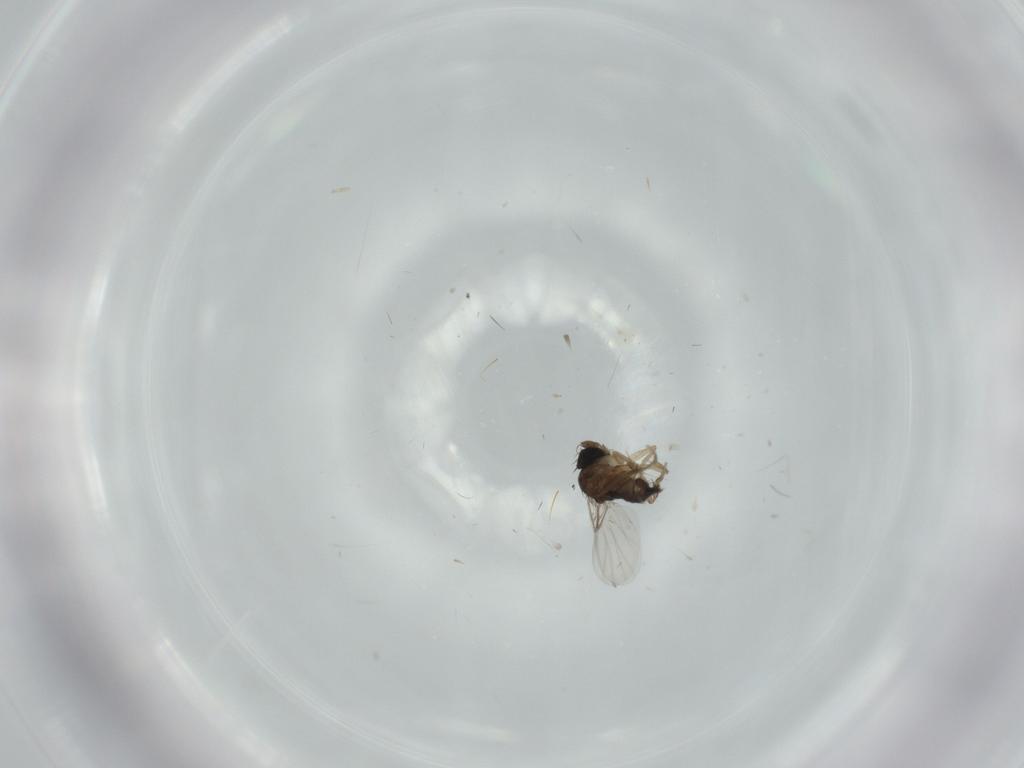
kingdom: Animalia
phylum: Arthropoda
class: Insecta
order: Diptera
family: Phoridae
